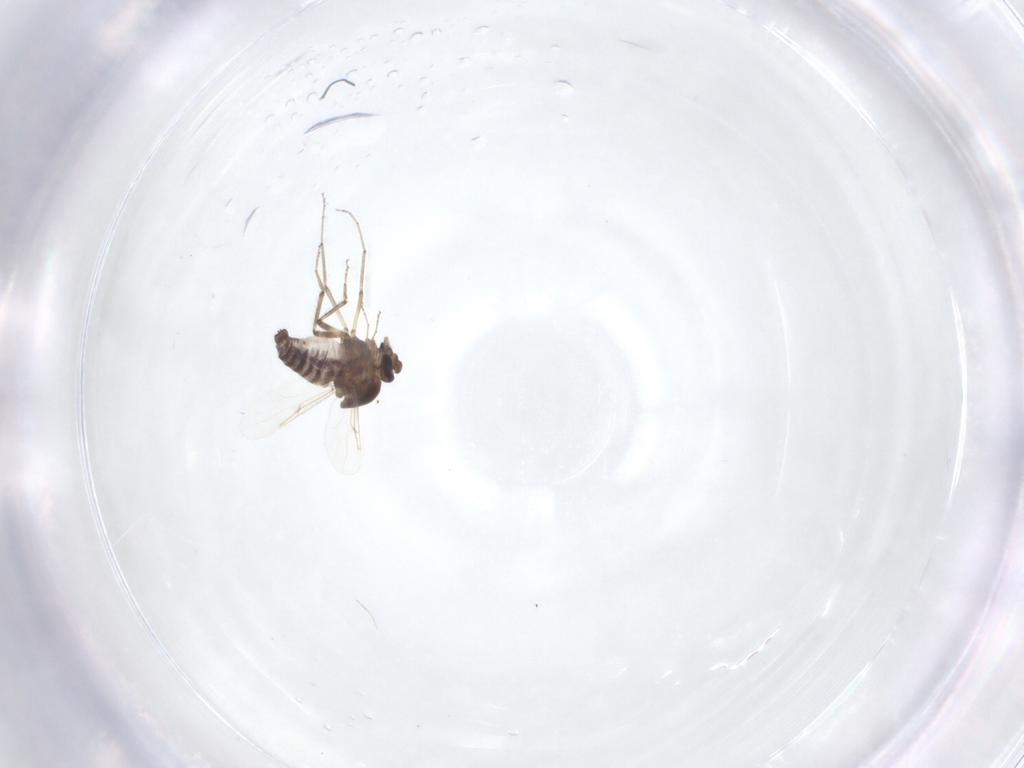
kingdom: Animalia
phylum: Arthropoda
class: Insecta
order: Diptera
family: Ceratopogonidae
